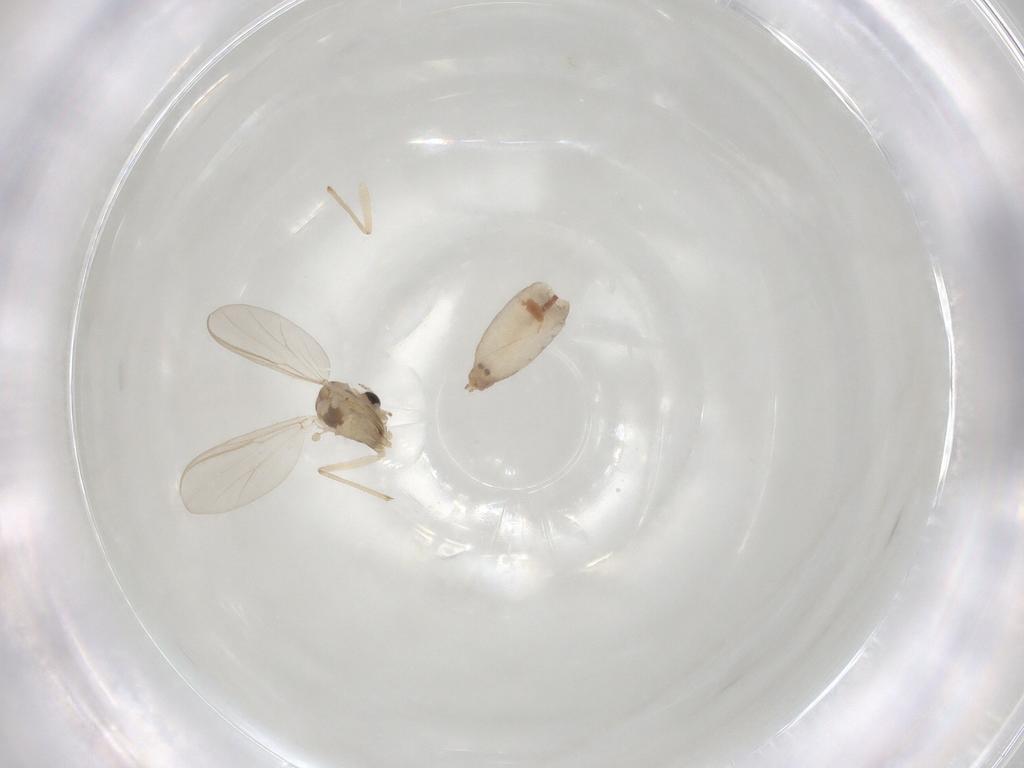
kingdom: Animalia
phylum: Arthropoda
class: Insecta
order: Diptera
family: Chironomidae
